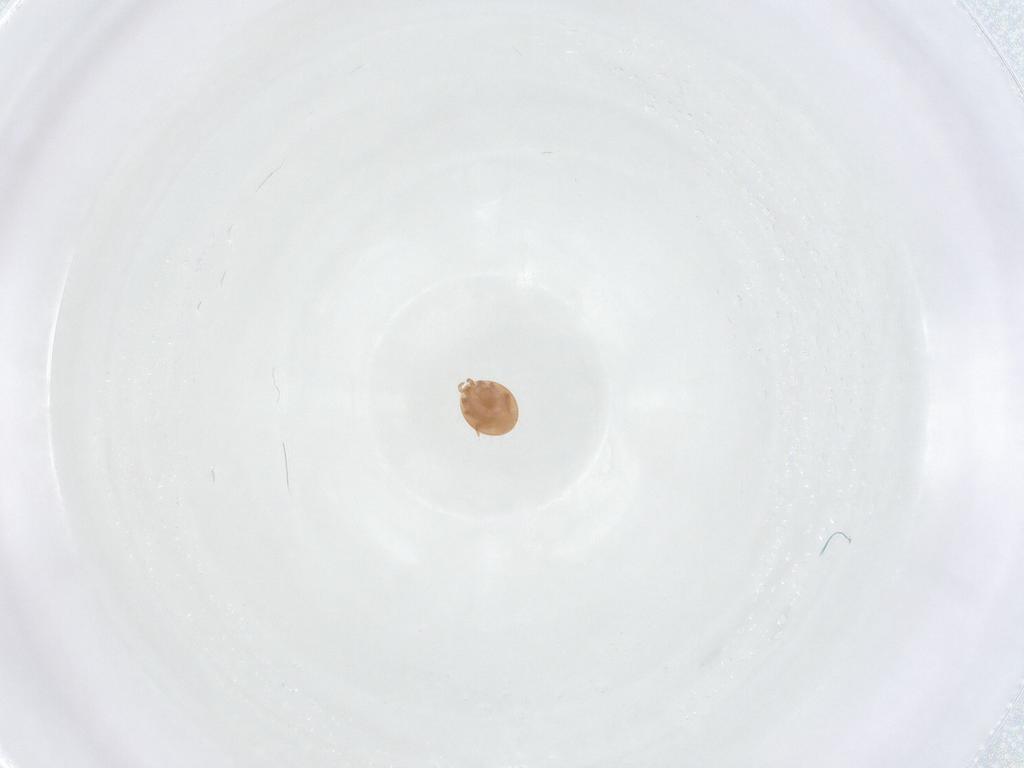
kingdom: Animalia
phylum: Arthropoda
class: Arachnida
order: Mesostigmata
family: Trematuridae
